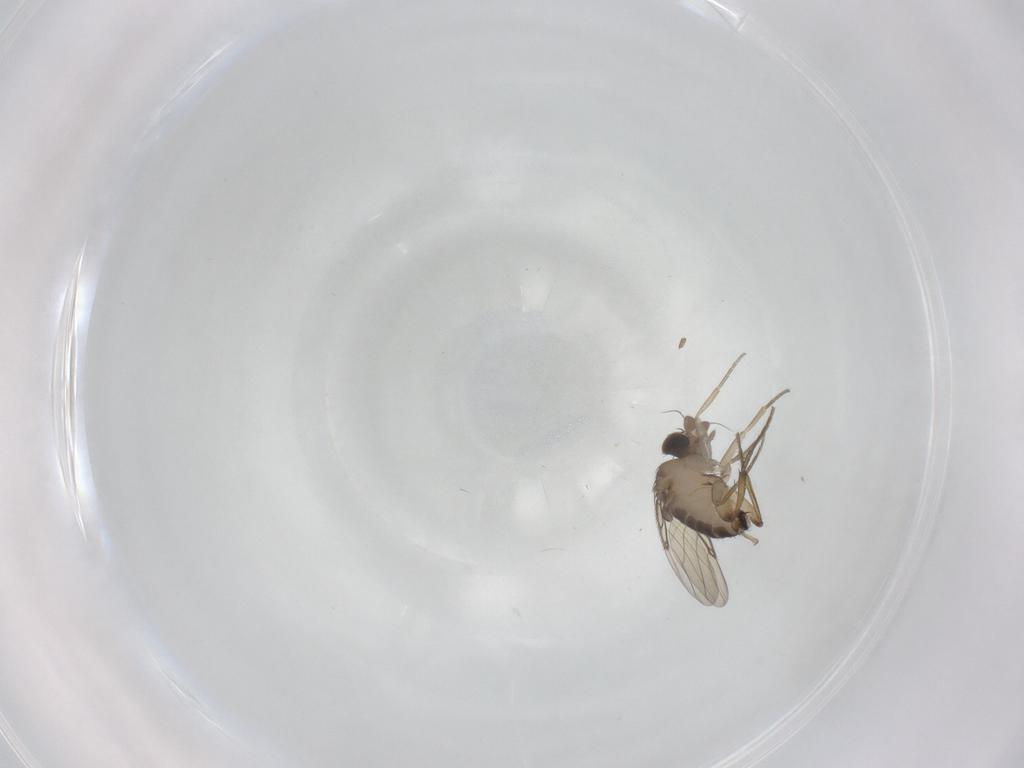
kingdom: Animalia
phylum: Arthropoda
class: Insecta
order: Diptera
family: Phoridae
